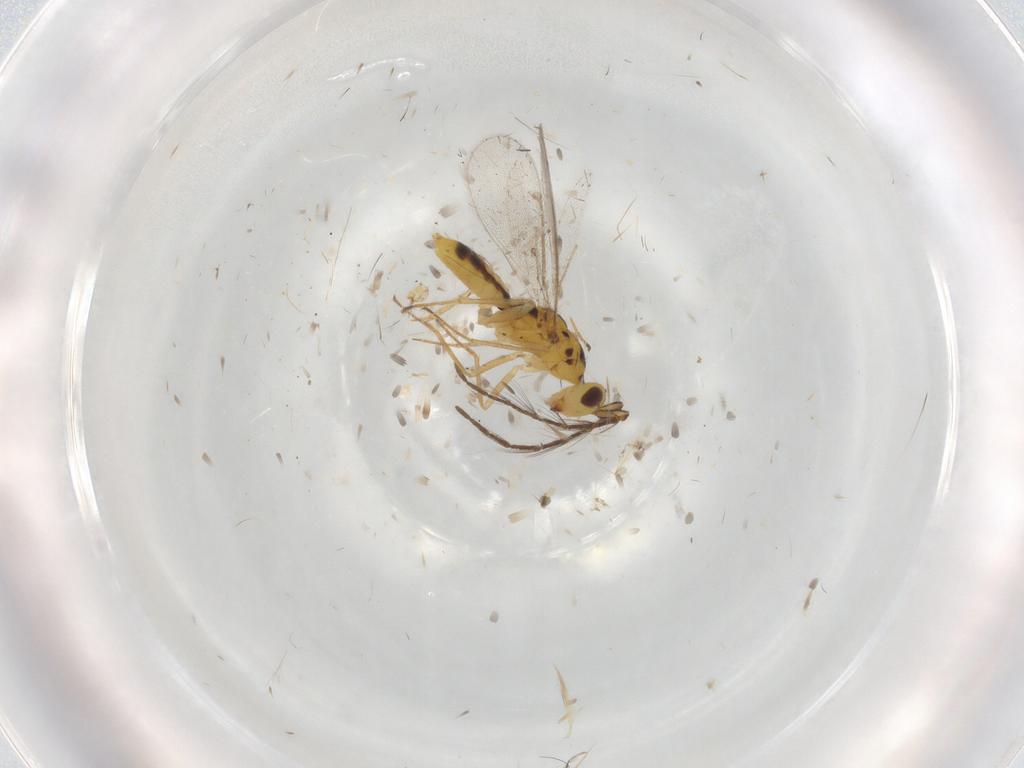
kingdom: Animalia
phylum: Arthropoda
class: Insecta
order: Hymenoptera
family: Eulophidae
